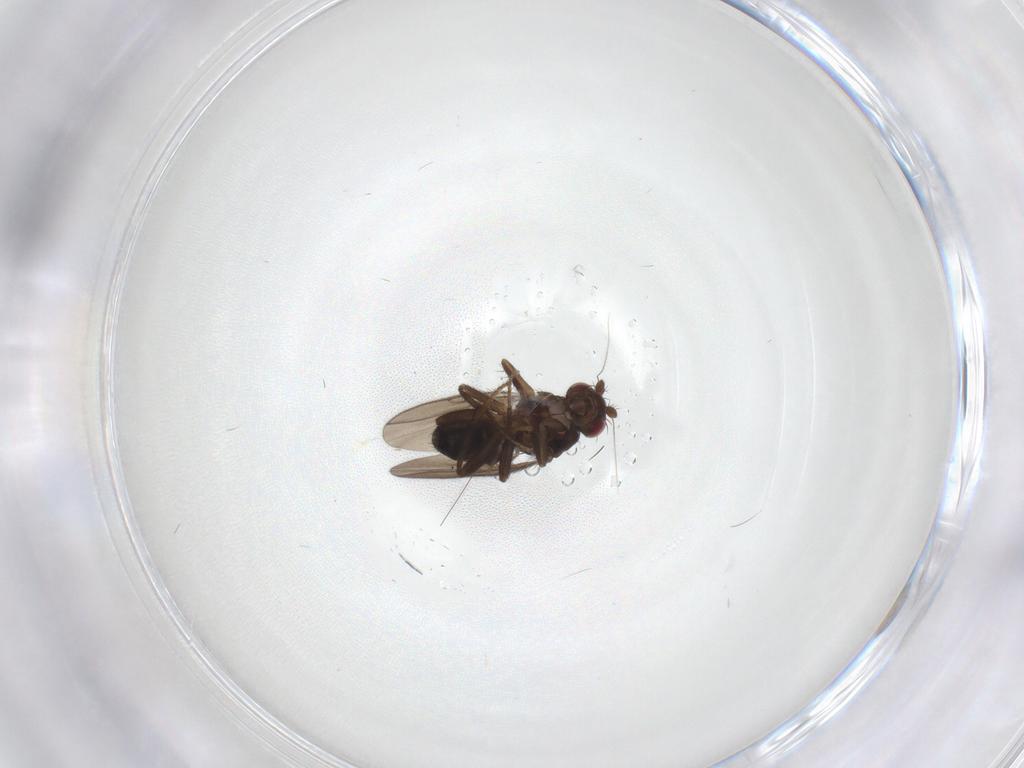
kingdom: Animalia
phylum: Arthropoda
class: Insecta
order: Diptera
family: Sphaeroceridae
